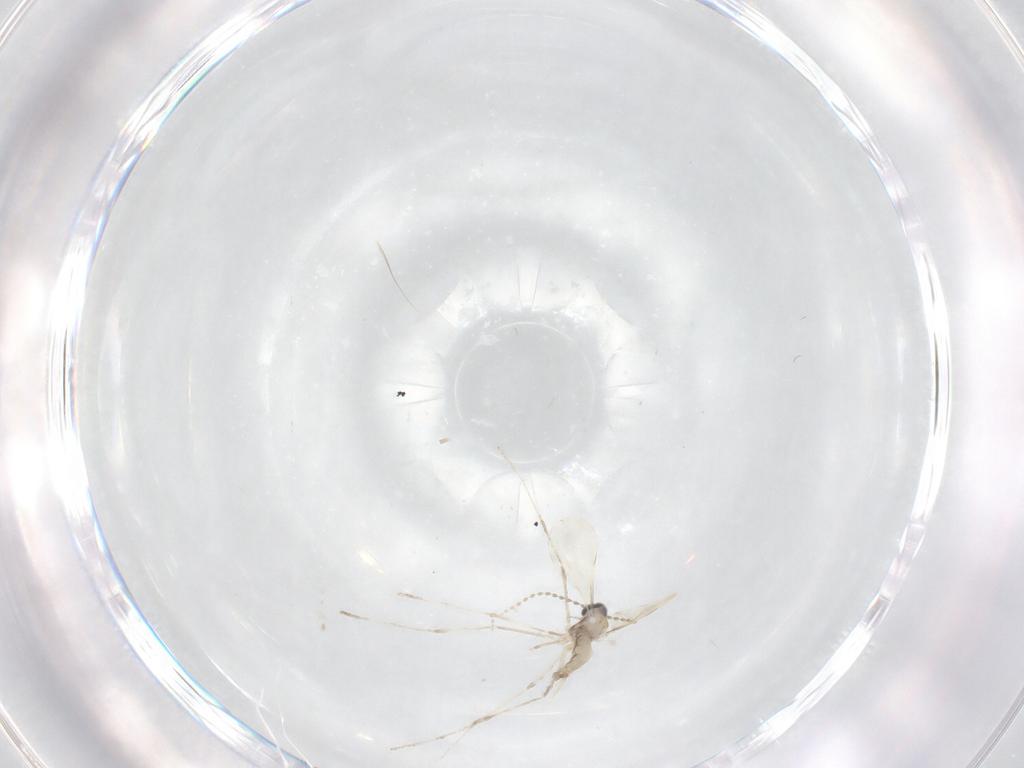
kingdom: Animalia
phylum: Arthropoda
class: Insecta
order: Diptera
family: Cecidomyiidae
